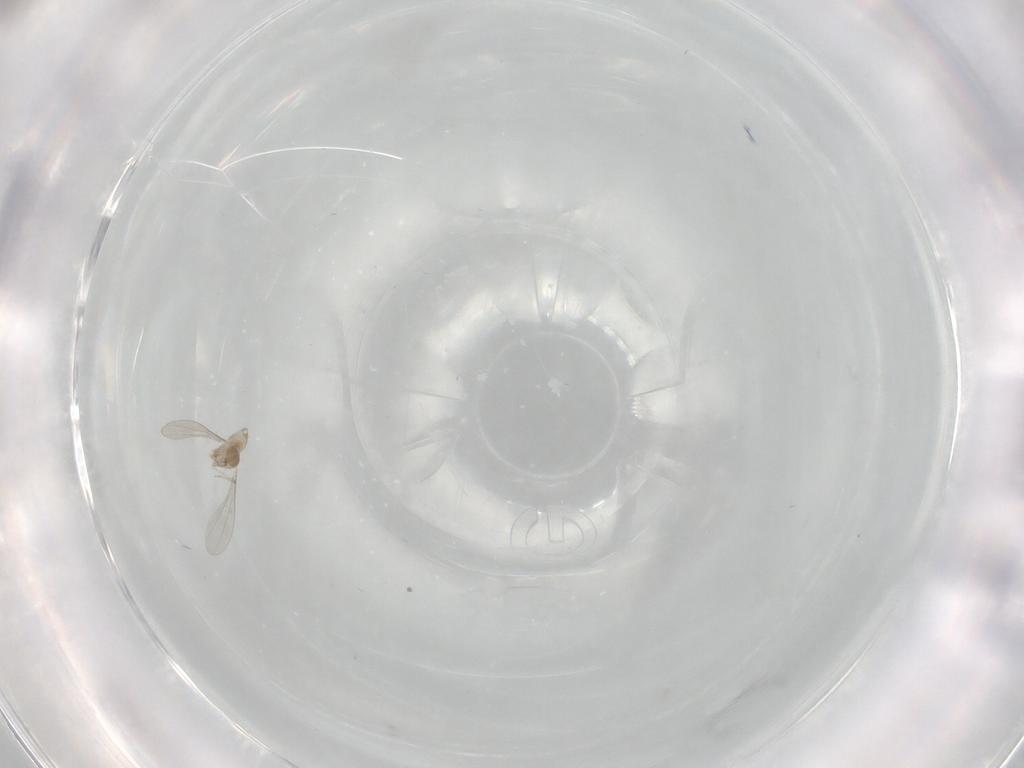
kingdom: Animalia
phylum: Arthropoda
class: Insecta
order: Diptera
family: Cecidomyiidae
